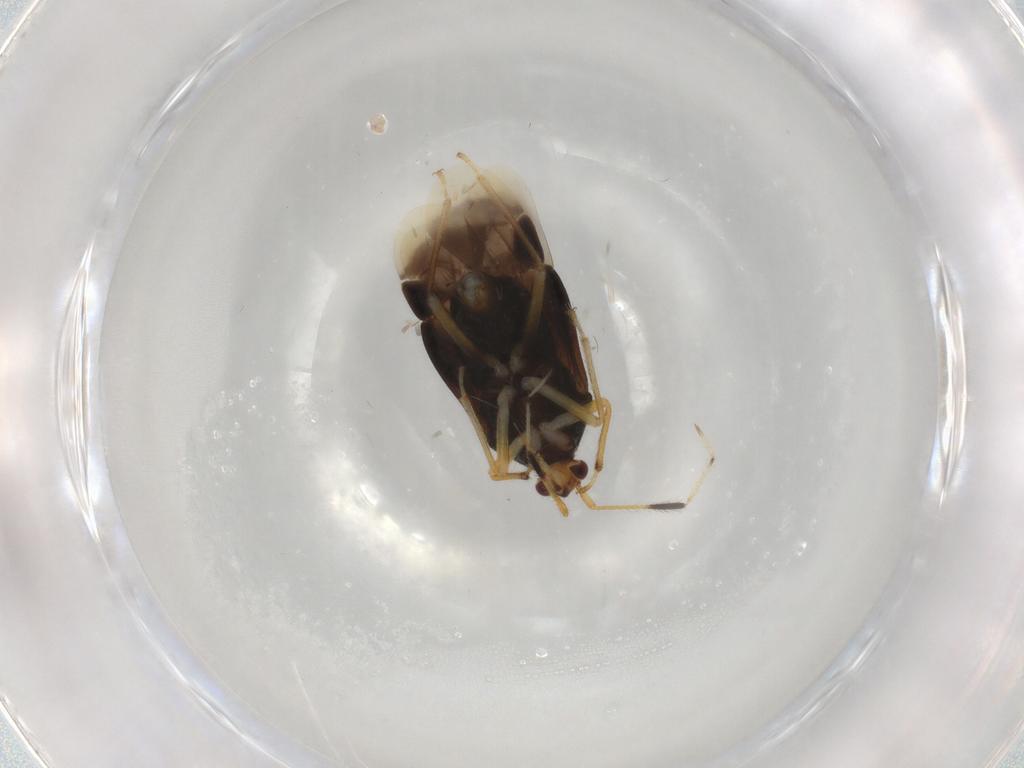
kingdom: Animalia
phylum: Arthropoda
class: Insecta
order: Hemiptera
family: Miridae
